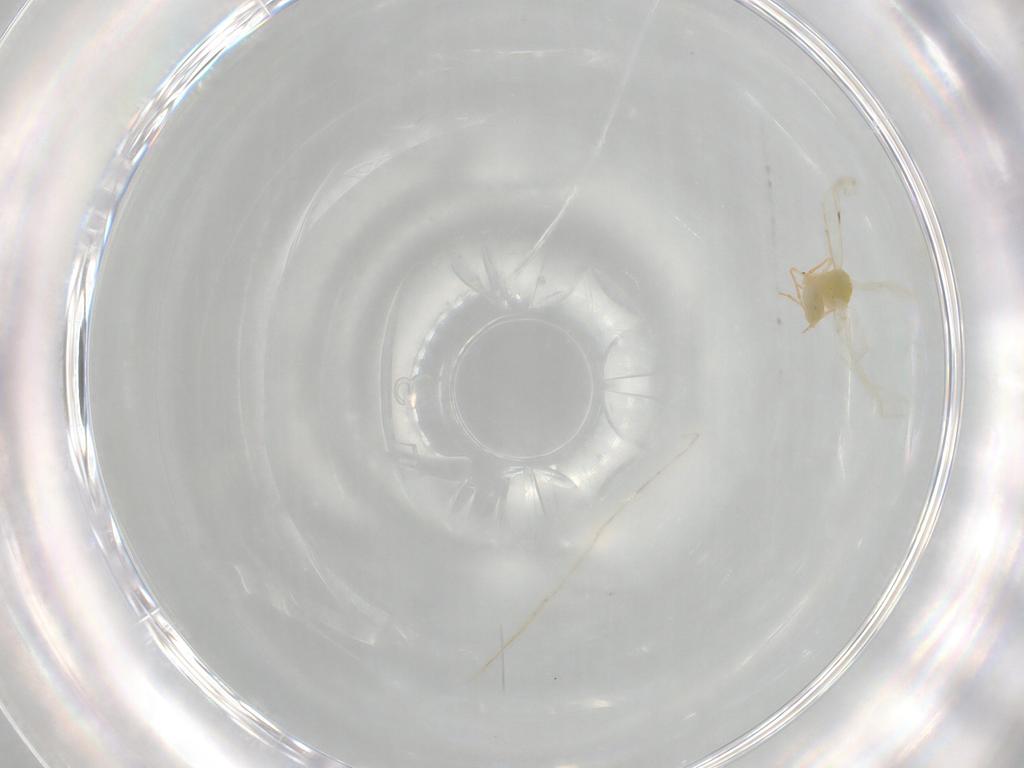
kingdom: Animalia
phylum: Arthropoda
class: Insecta
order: Hemiptera
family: Aleyrodidae
